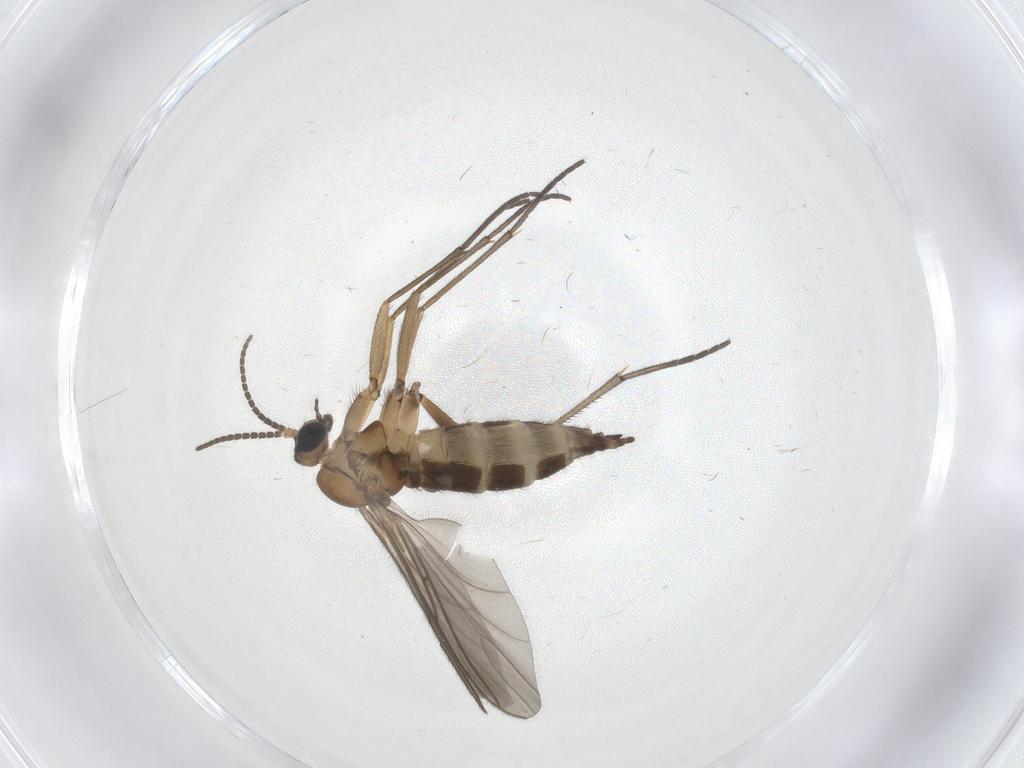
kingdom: Animalia
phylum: Arthropoda
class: Insecta
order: Diptera
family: Sciaridae
